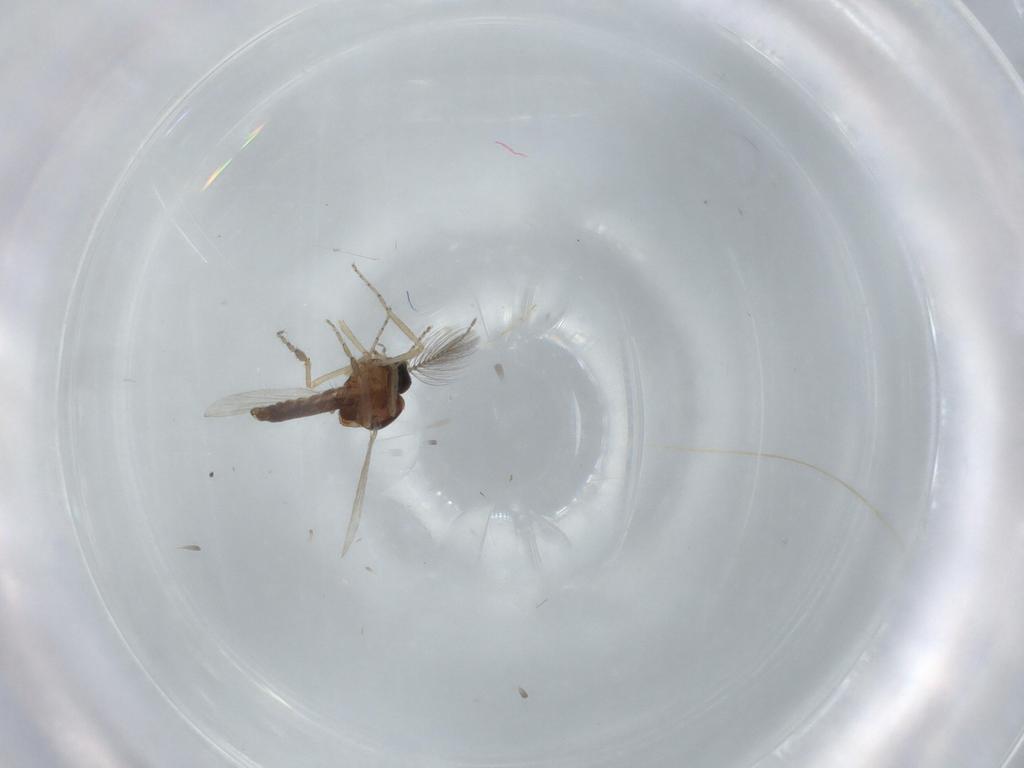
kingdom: Animalia
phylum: Arthropoda
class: Insecta
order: Diptera
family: Ceratopogonidae
